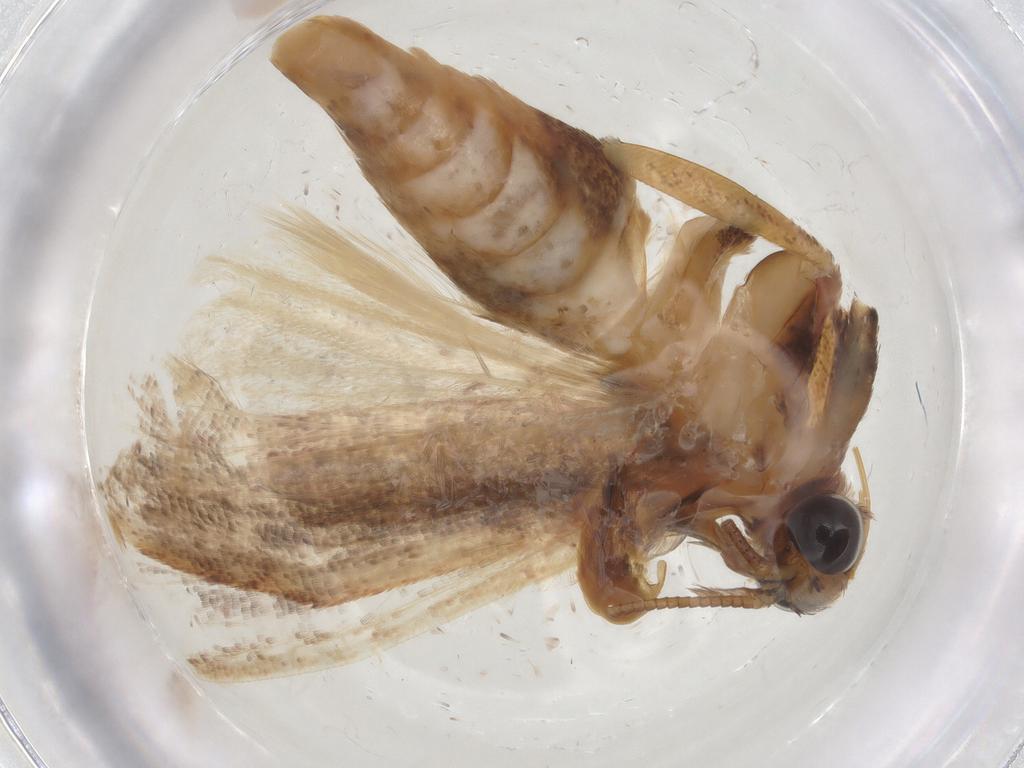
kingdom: Animalia
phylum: Arthropoda
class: Insecta
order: Lepidoptera
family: Pyralidae
